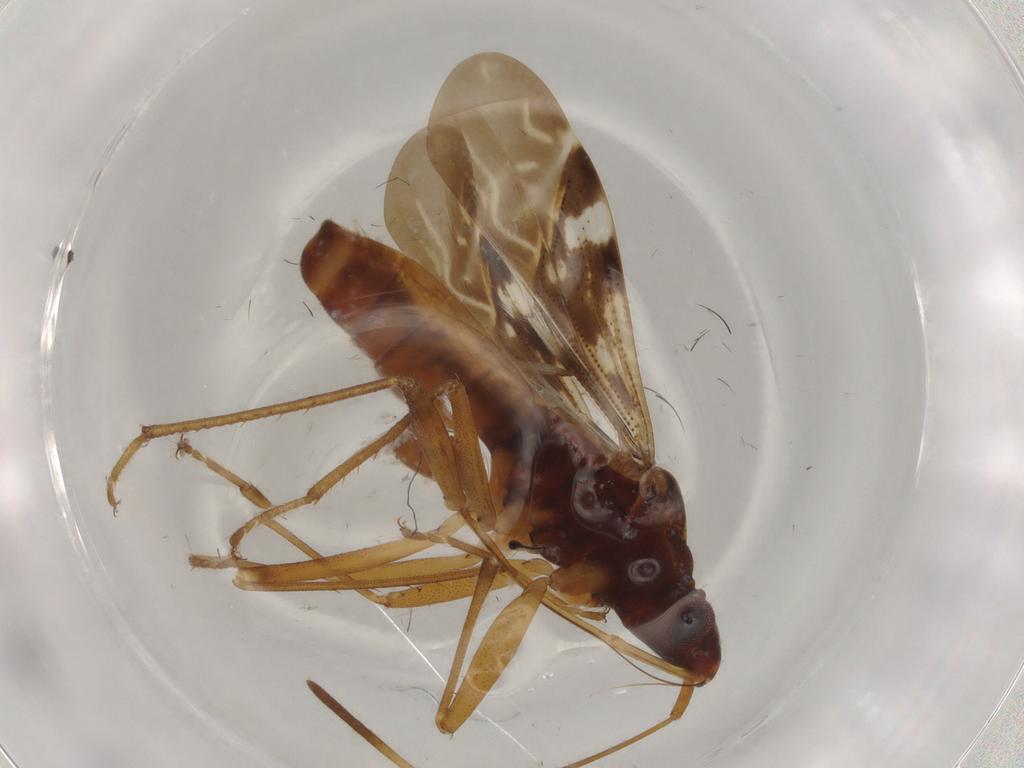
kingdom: Animalia
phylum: Arthropoda
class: Insecta
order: Hemiptera
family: Rhyparochromidae
